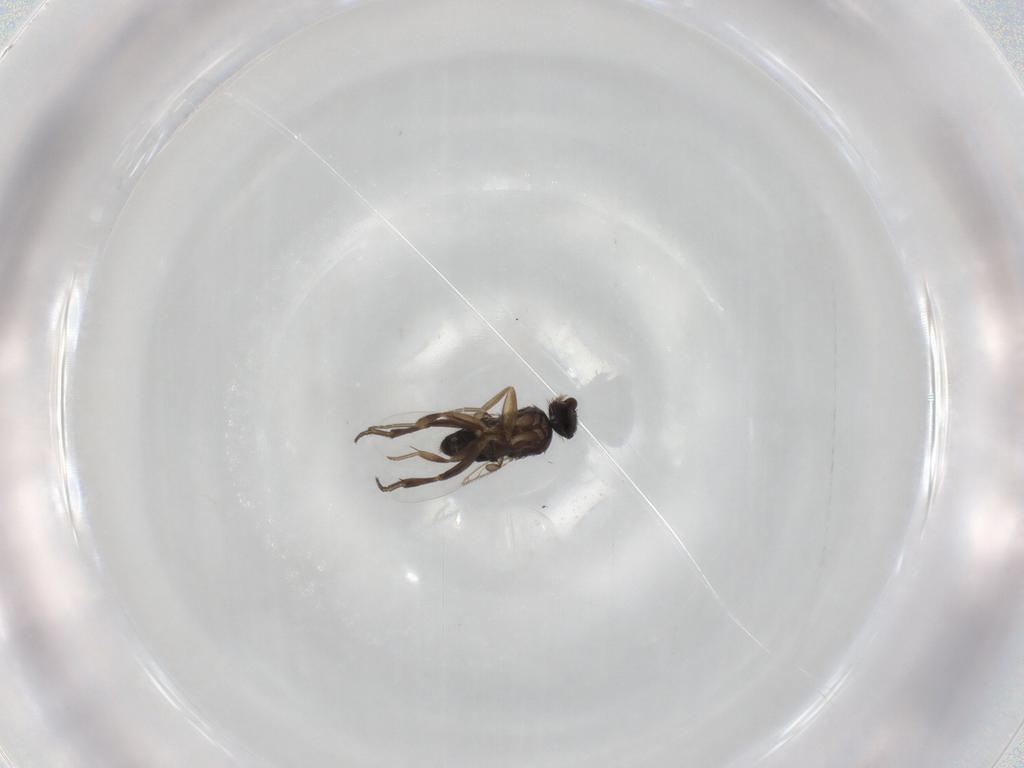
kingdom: Animalia
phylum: Arthropoda
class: Insecta
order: Diptera
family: Phoridae
